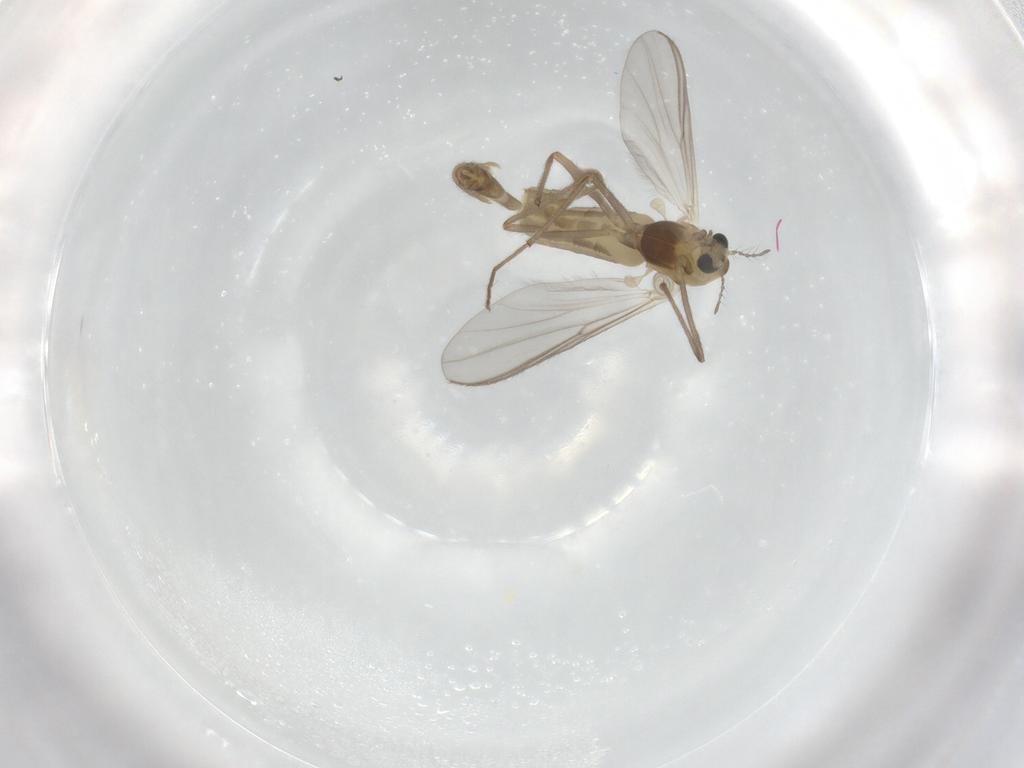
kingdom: Animalia
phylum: Arthropoda
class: Insecta
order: Diptera
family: Chironomidae
